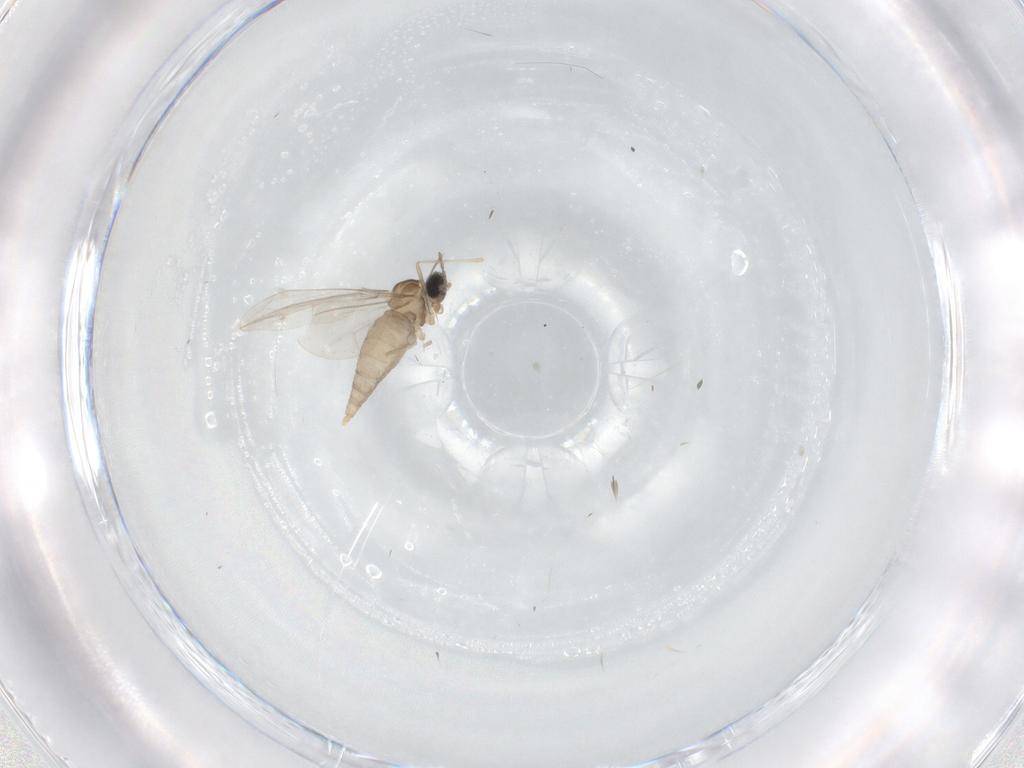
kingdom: Animalia
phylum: Arthropoda
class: Insecta
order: Diptera
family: Cecidomyiidae
